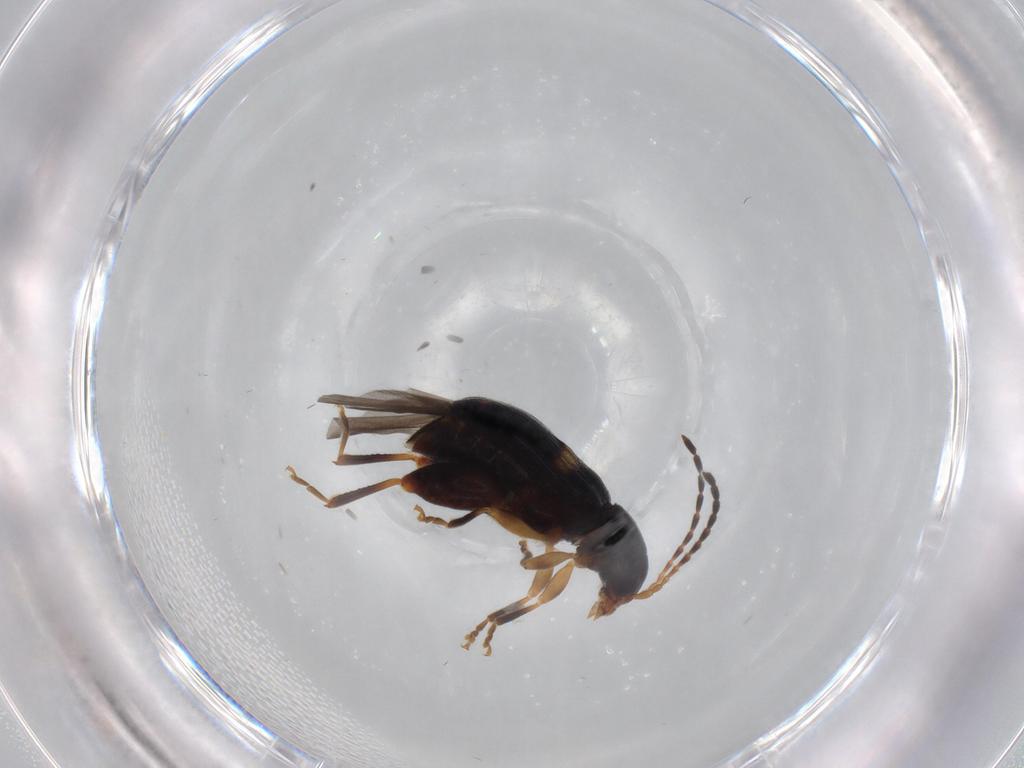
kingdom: Animalia
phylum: Arthropoda
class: Insecta
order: Coleoptera
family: Chrysomelidae
